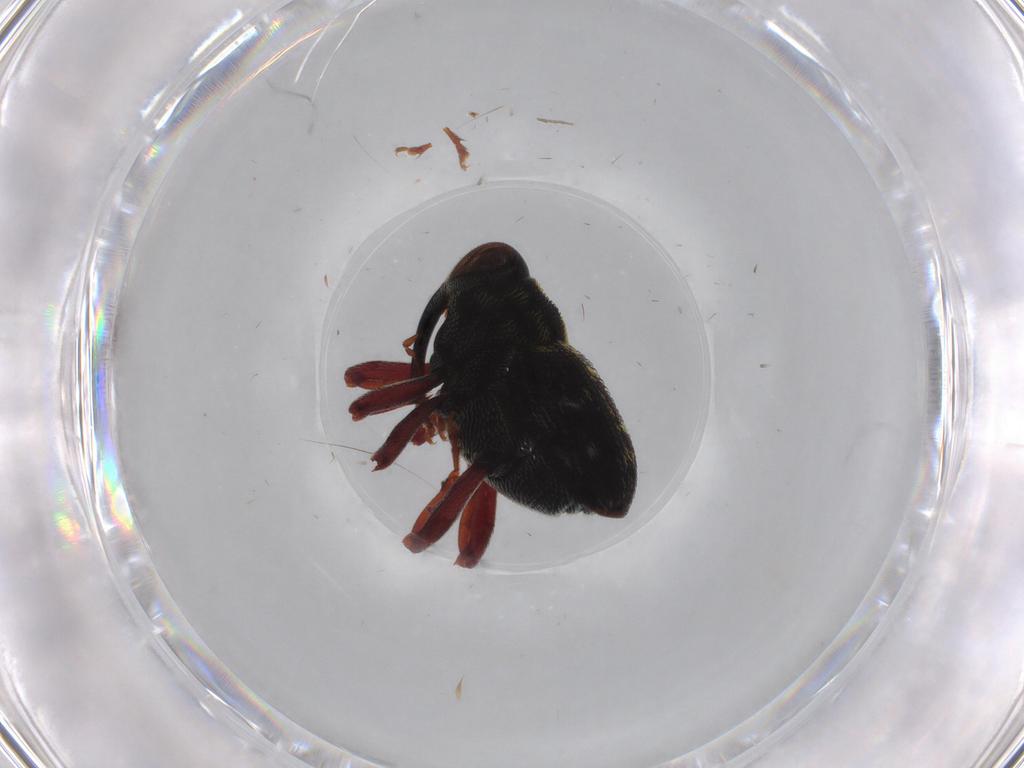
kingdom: Animalia
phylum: Arthropoda
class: Insecta
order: Coleoptera
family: Curculionidae
